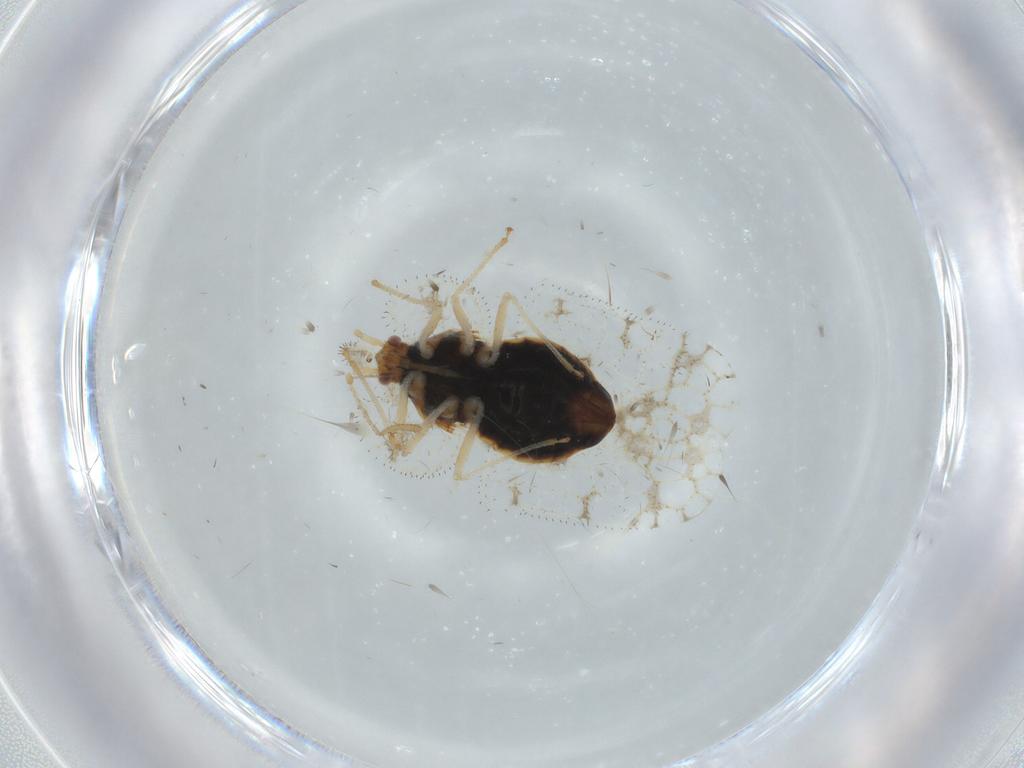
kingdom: Animalia
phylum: Arthropoda
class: Insecta
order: Hemiptera
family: Tingidae
